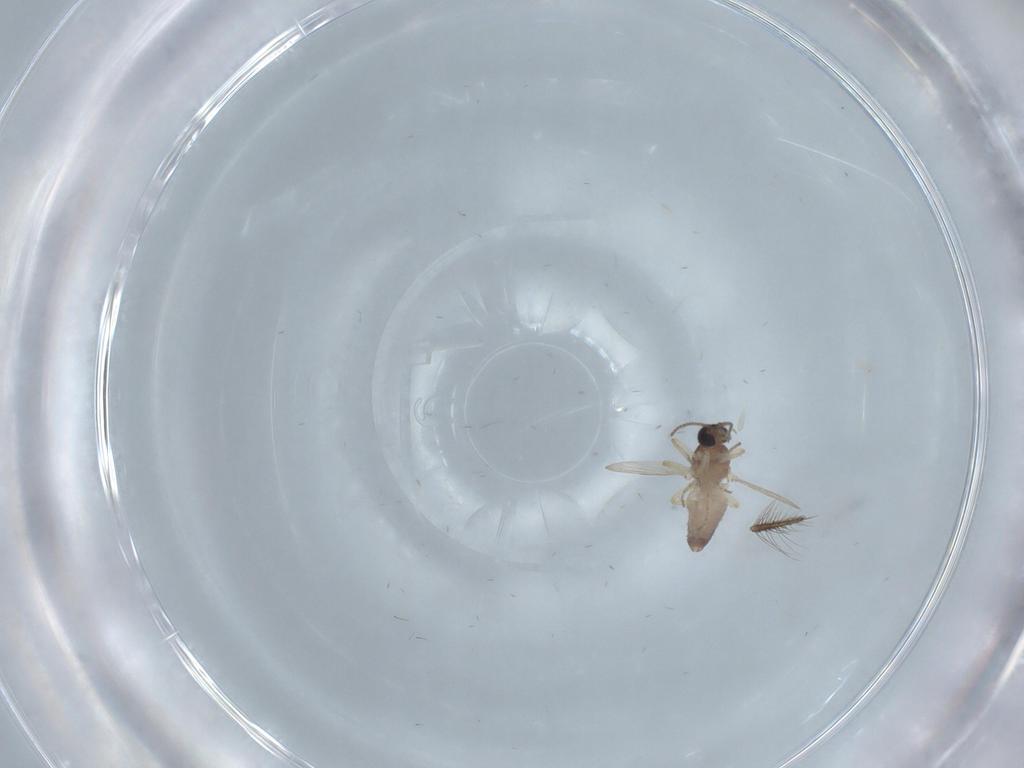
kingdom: Animalia
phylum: Arthropoda
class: Insecta
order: Diptera
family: Ceratopogonidae
